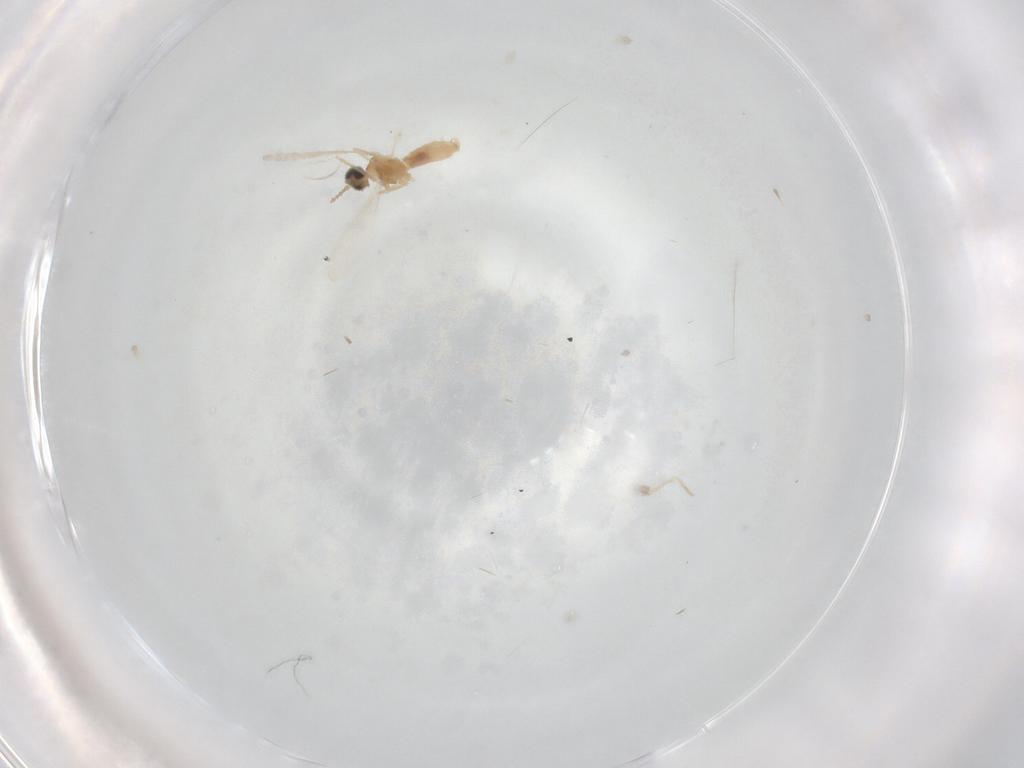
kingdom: Animalia
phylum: Arthropoda
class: Insecta
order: Diptera
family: Cecidomyiidae
